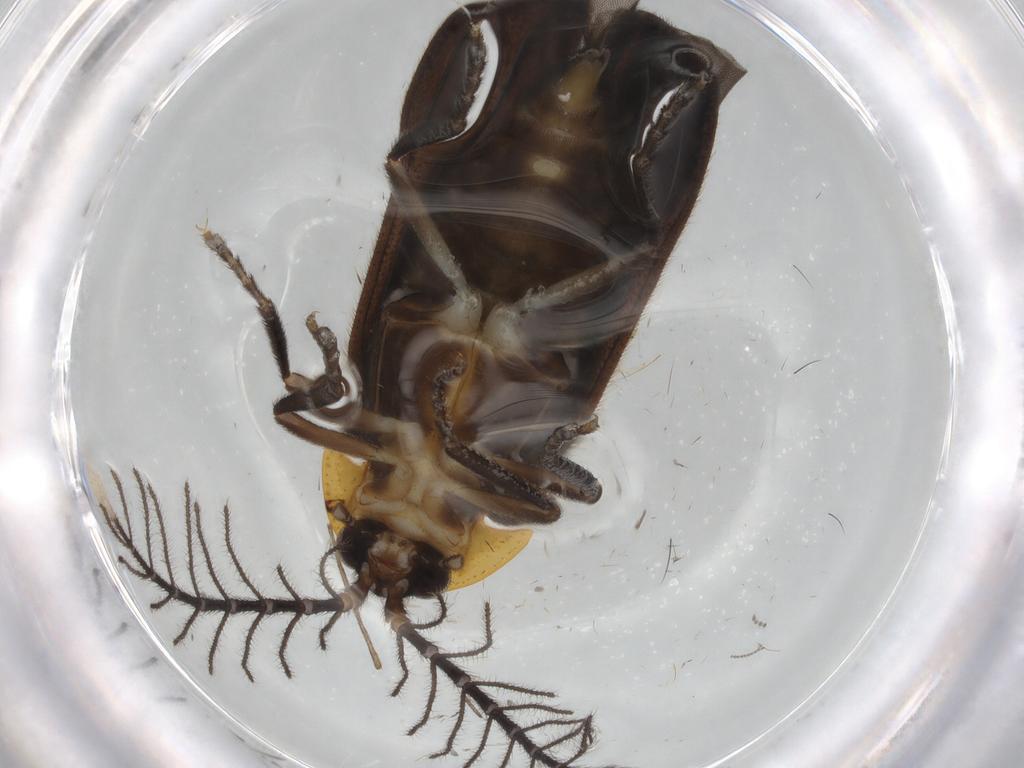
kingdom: Animalia
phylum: Arthropoda
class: Insecta
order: Coleoptera
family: Lampyridae
